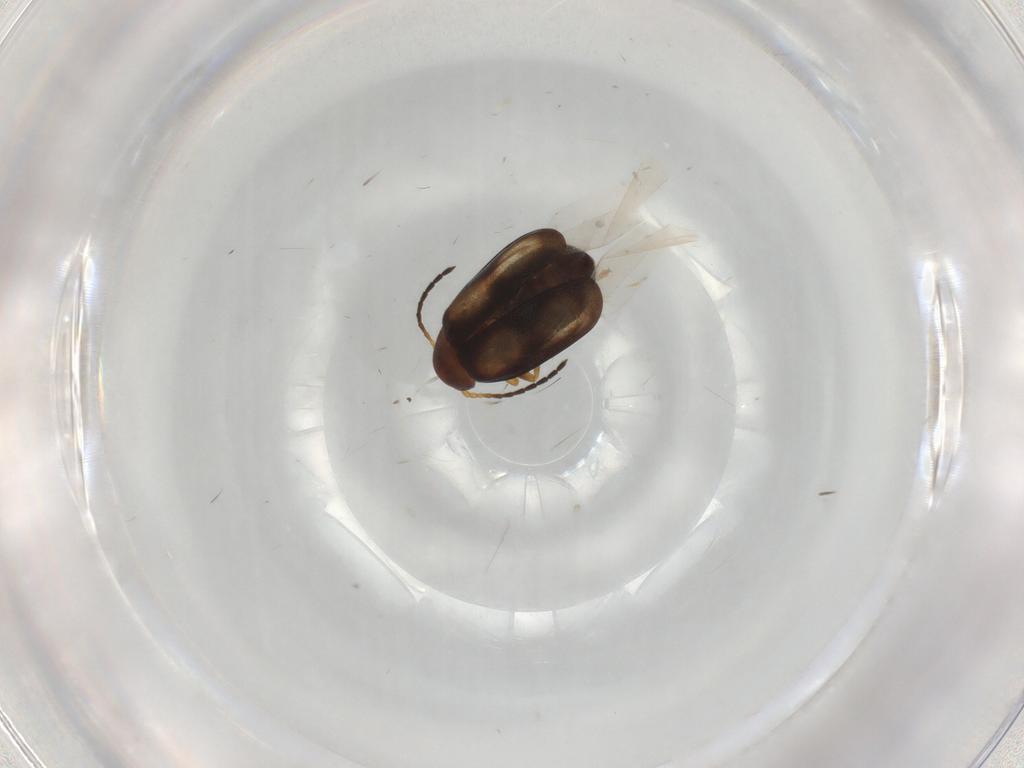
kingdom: Animalia
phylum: Arthropoda
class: Insecta
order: Coleoptera
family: Chrysomelidae
